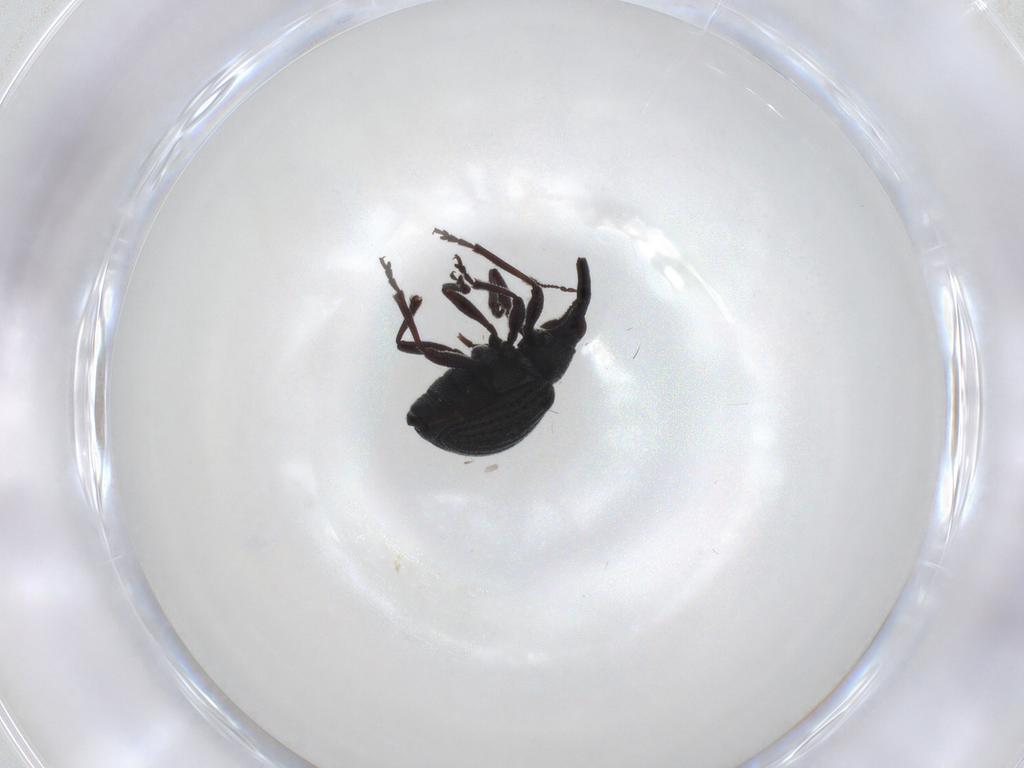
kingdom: Animalia
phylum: Arthropoda
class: Insecta
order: Coleoptera
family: Brentidae
